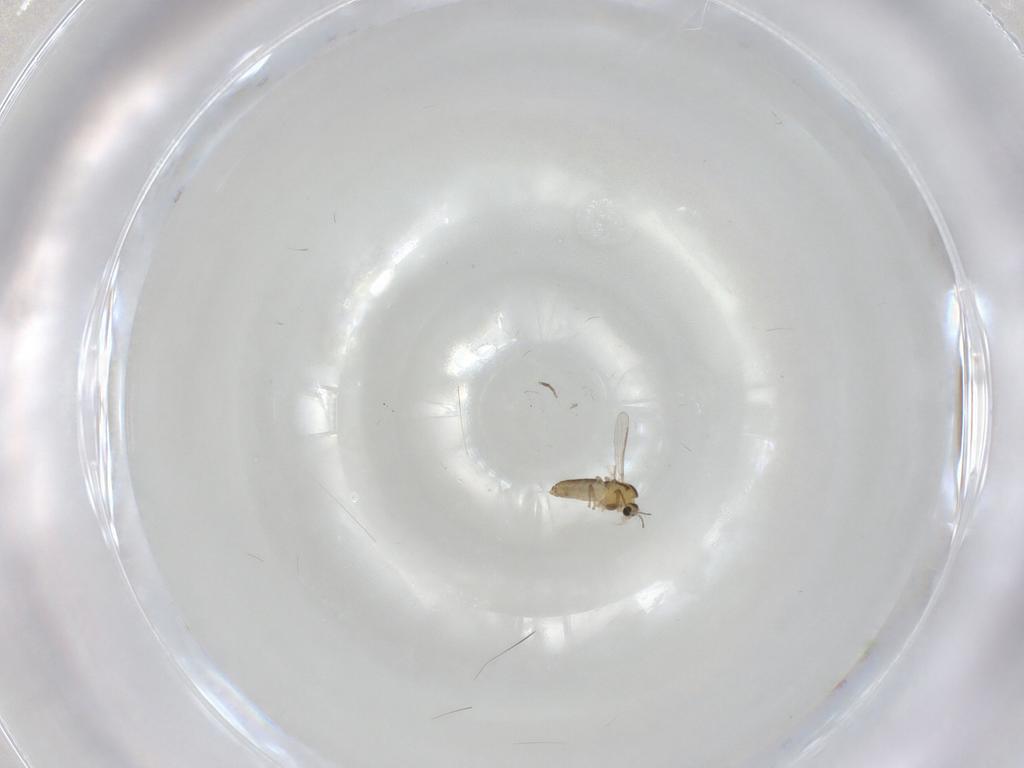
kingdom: Animalia
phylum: Arthropoda
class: Insecta
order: Diptera
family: Chironomidae
